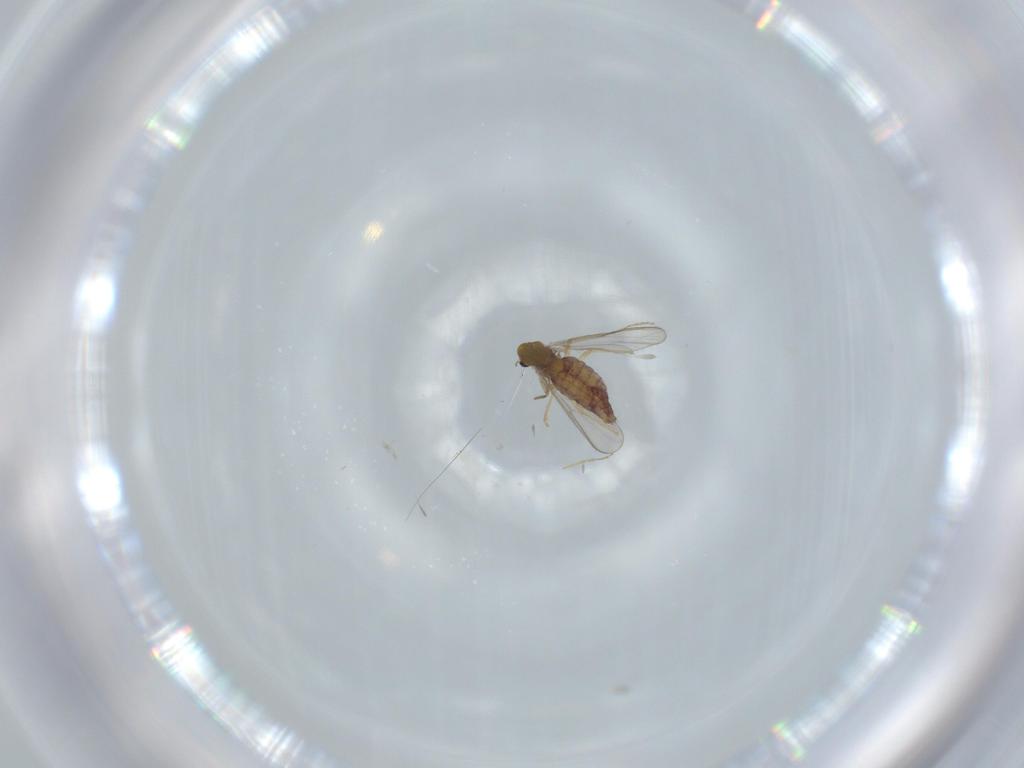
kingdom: Animalia
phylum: Arthropoda
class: Insecta
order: Diptera
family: Chironomidae
